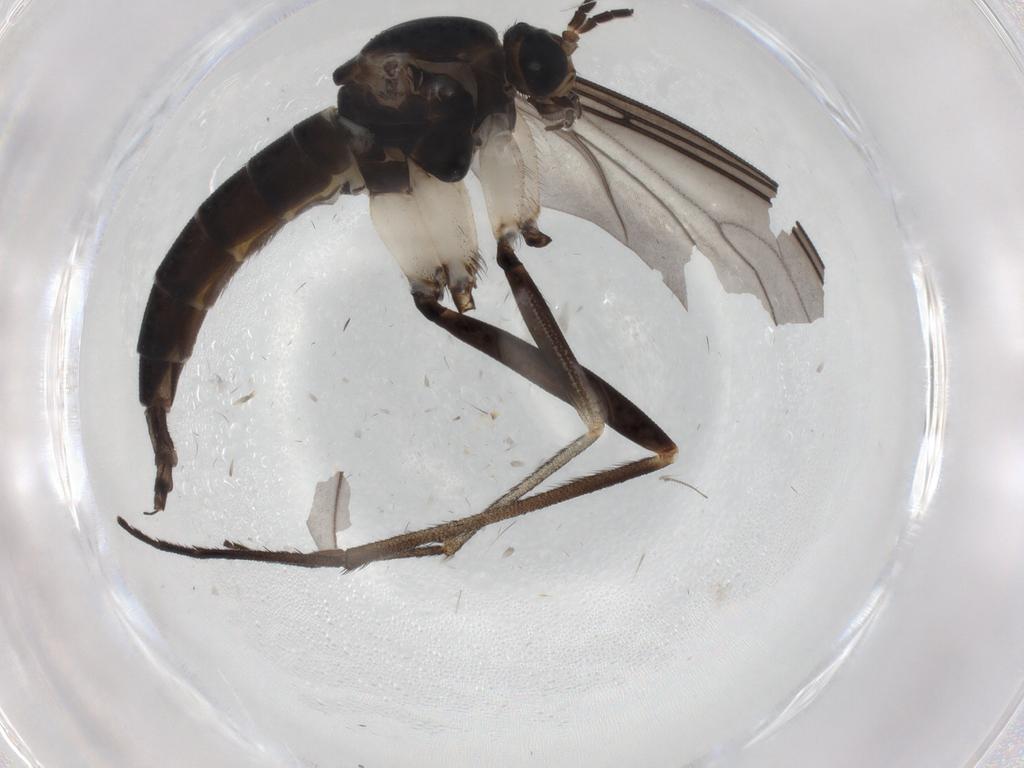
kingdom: Animalia
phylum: Arthropoda
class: Insecta
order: Diptera
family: Sciaridae
